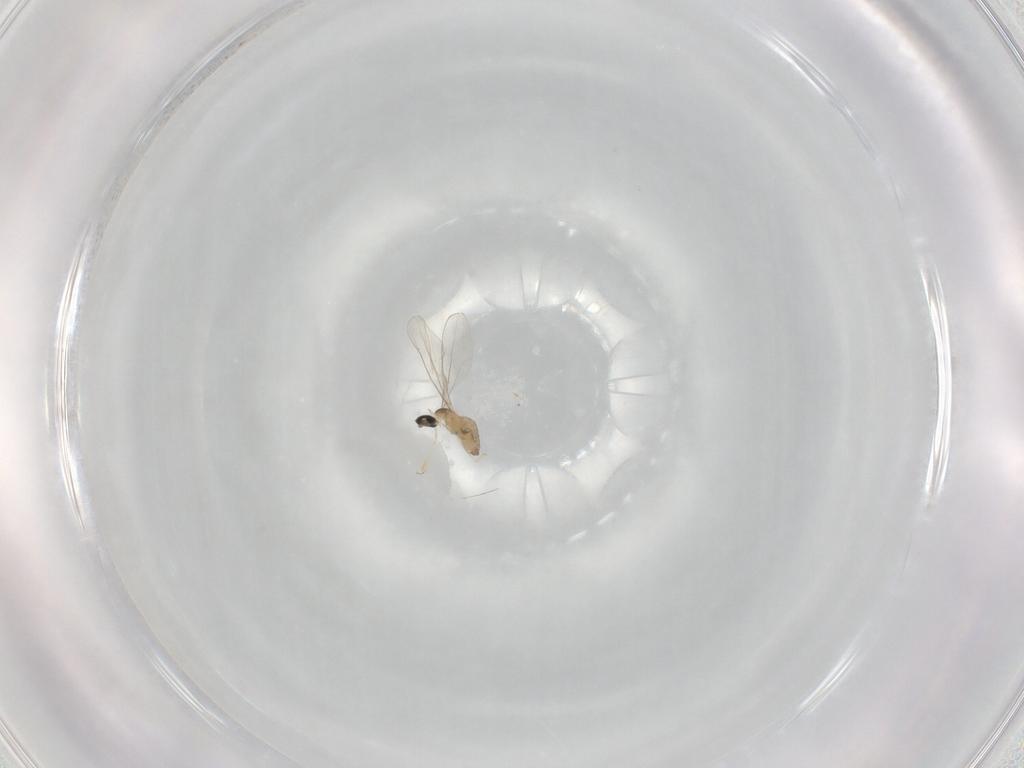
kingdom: Animalia
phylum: Arthropoda
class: Insecta
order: Diptera
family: Cecidomyiidae
